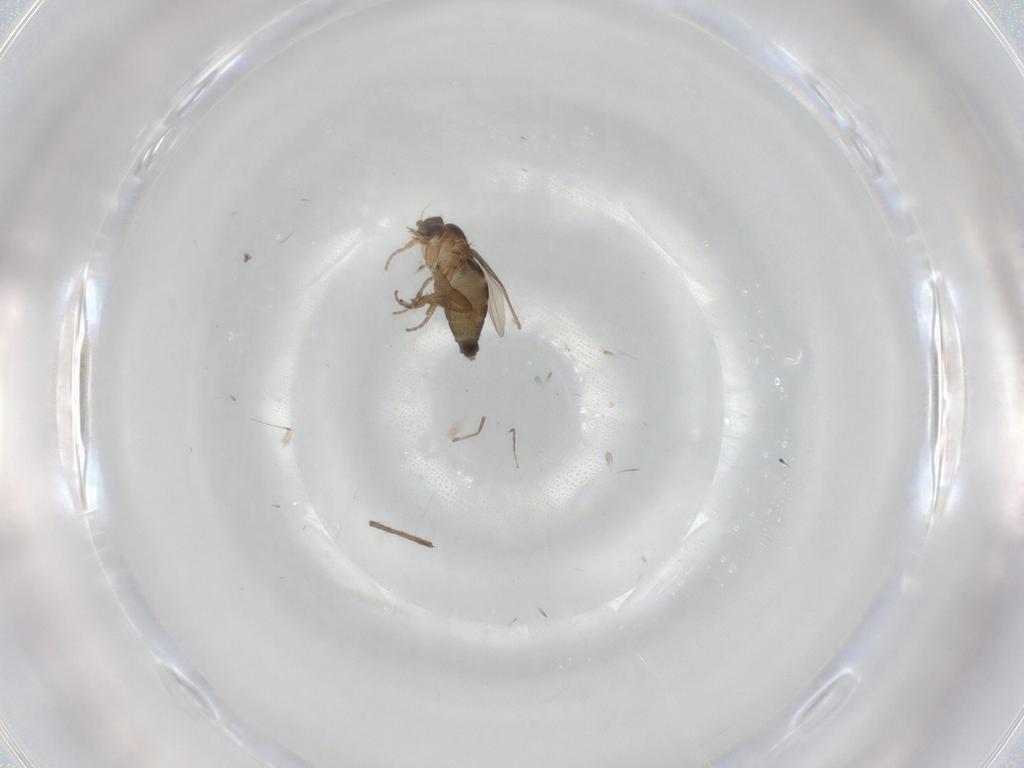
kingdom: Animalia
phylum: Arthropoda
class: Insecta
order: Diptera
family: Phoridae
